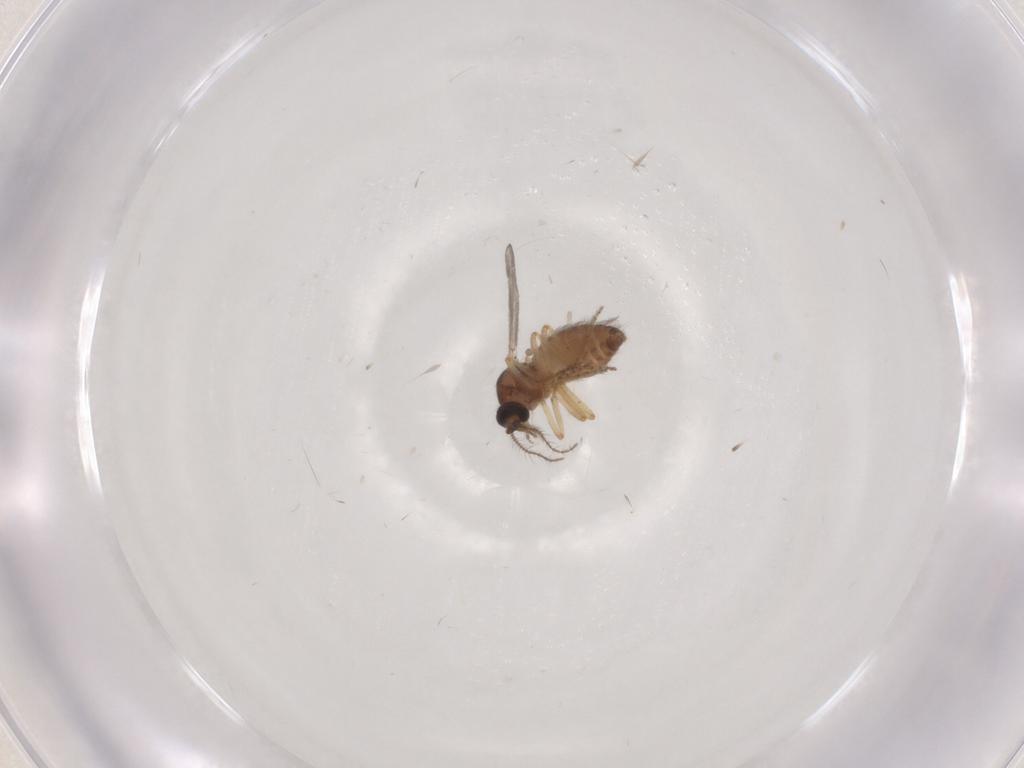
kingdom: Animalia
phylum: Arthropoda
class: Insecta
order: Diptera
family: Ceratopogonidae
